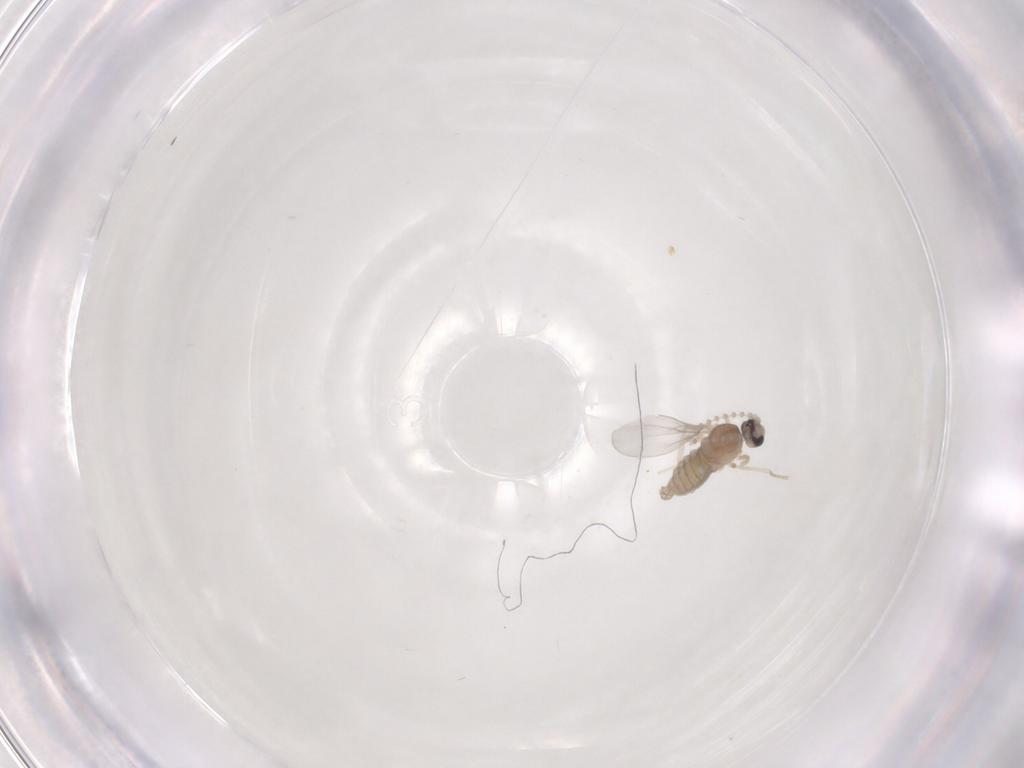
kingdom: Animalia
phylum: Arthropoda
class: Insecta
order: Diptera
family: Cecidomyiidae
